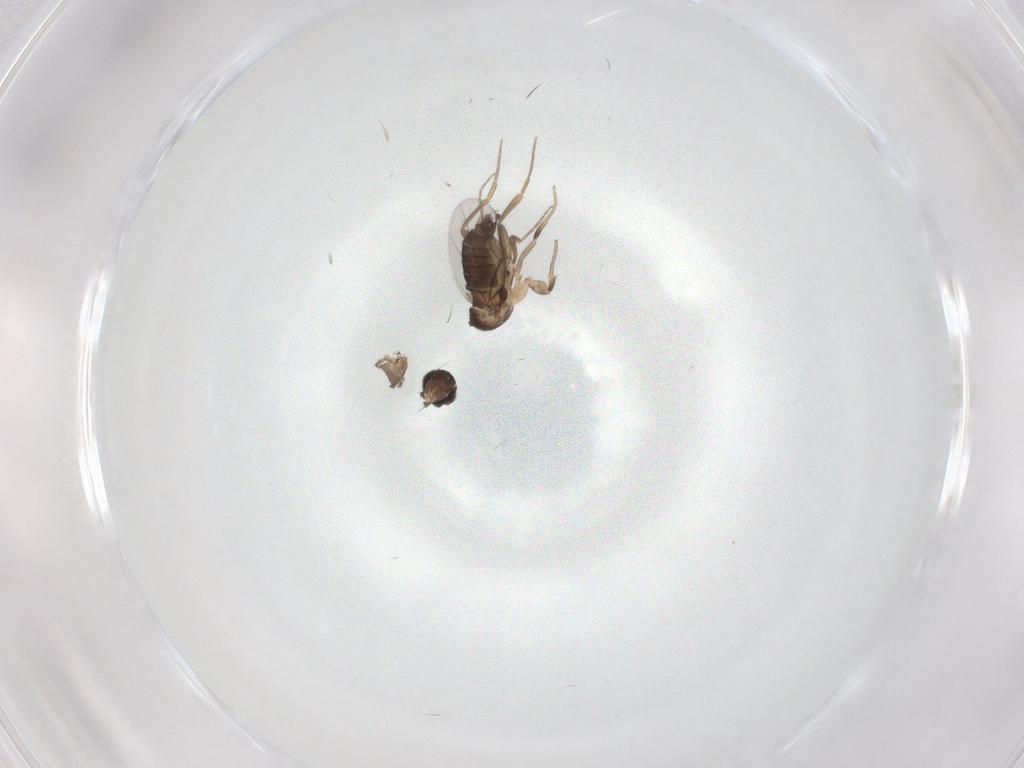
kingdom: Animalia
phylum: Arthropoda
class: Insecta
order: Diptera
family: Phoridae
